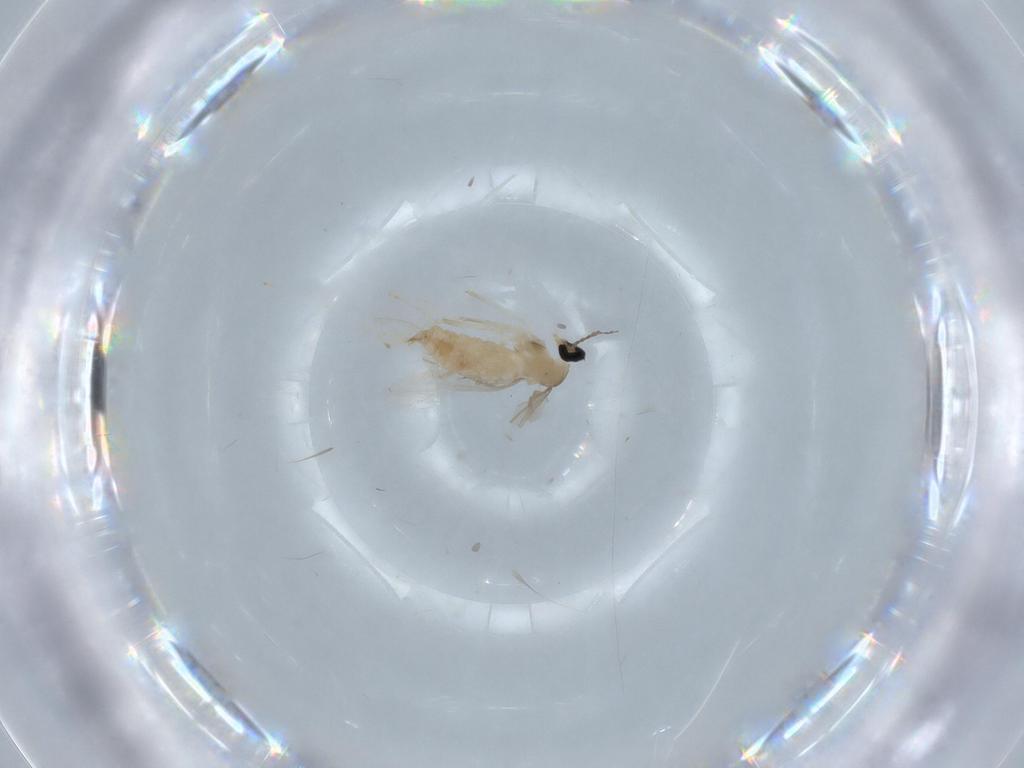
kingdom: Animalia
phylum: Arthropoda
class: Insecta
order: Diptera
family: Cecidomyiidae
